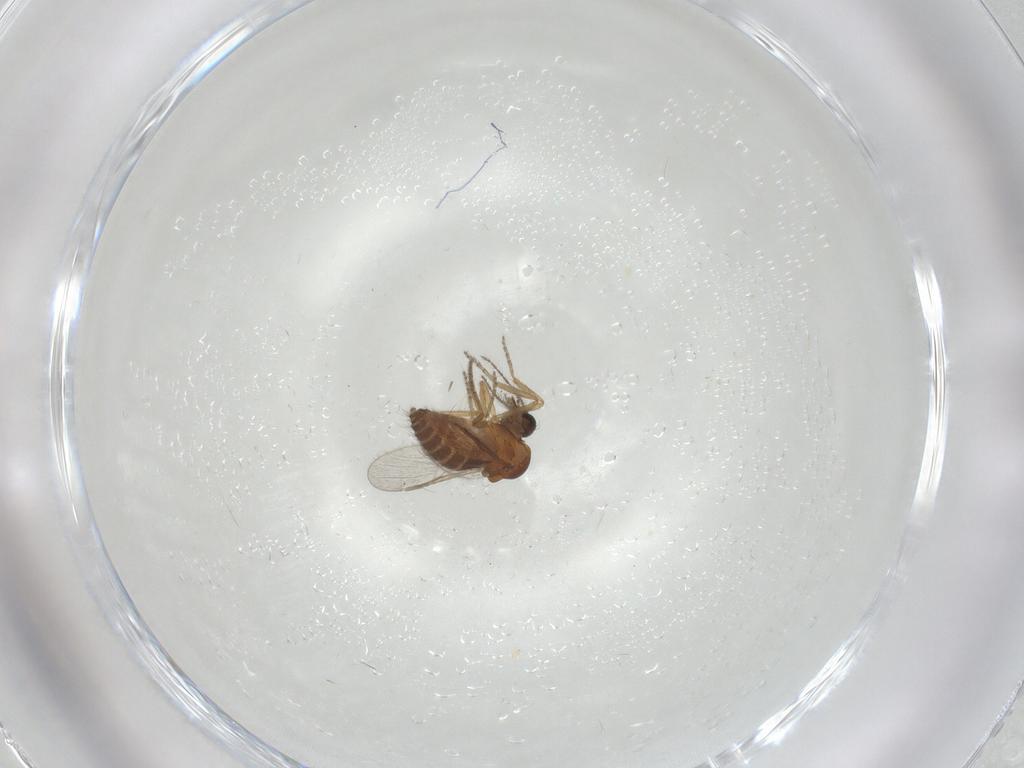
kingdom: Animalia
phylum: Arthropoda
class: Insecta
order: Diptera
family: Ceratopogonidae
